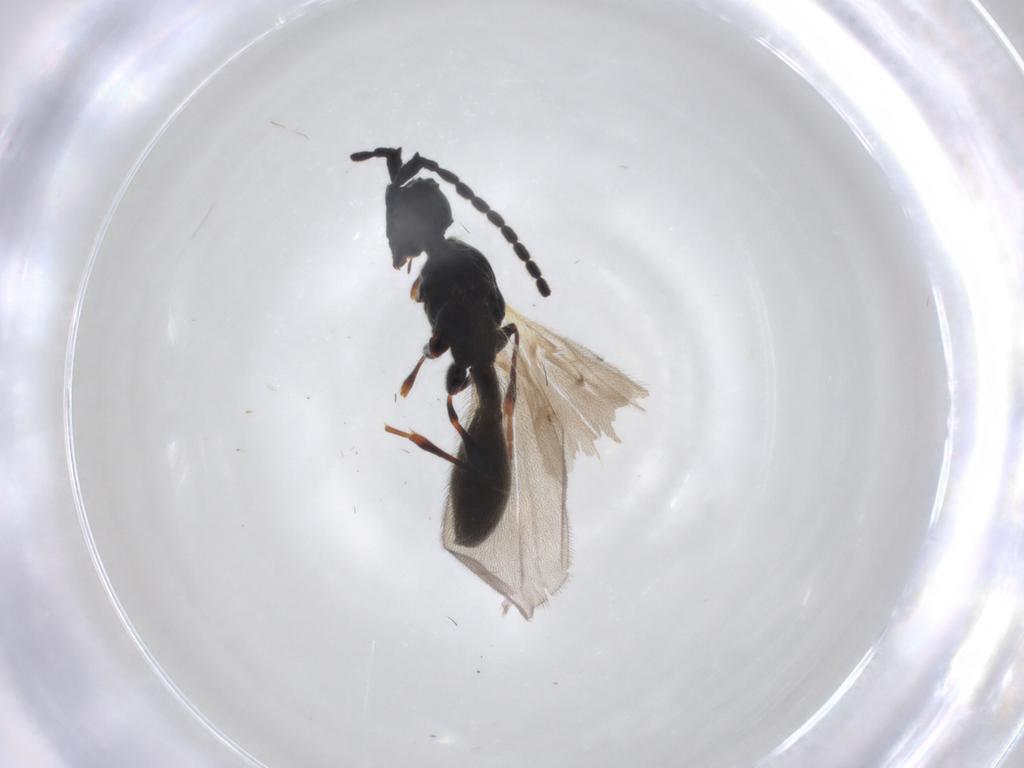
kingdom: Animalia
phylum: Arthropoda
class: Insecta
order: Hymenoptera
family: Diapriidae
